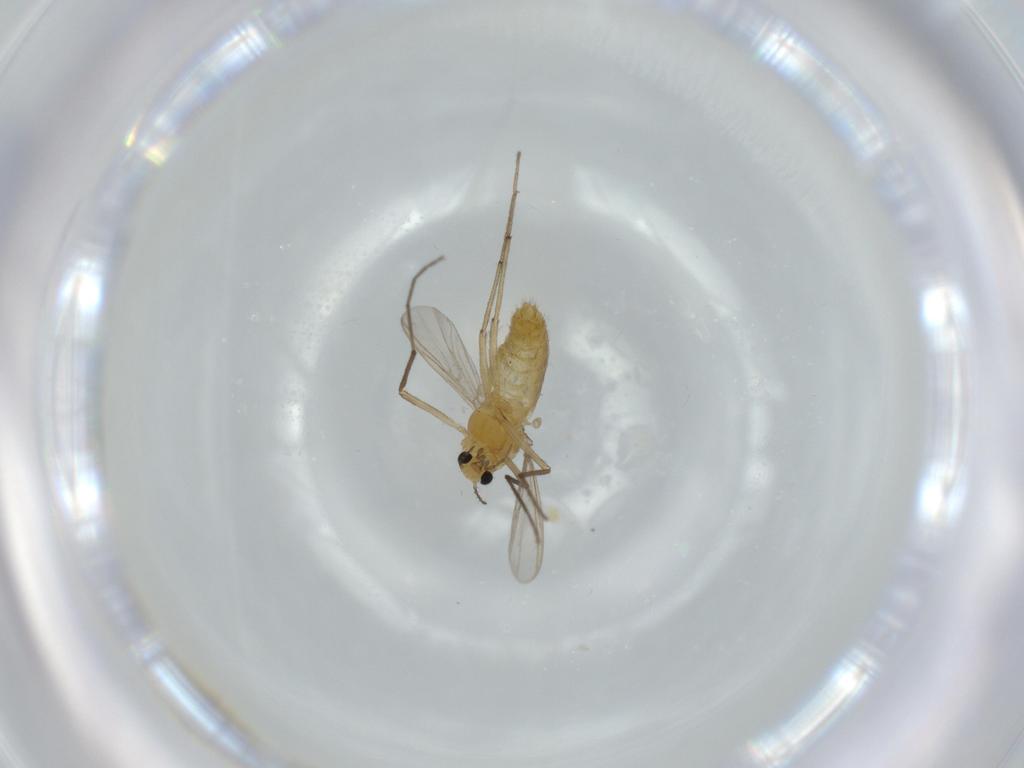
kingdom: Animalia
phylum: Arthropoda
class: Insecta
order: Diptera
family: Chironomidae
